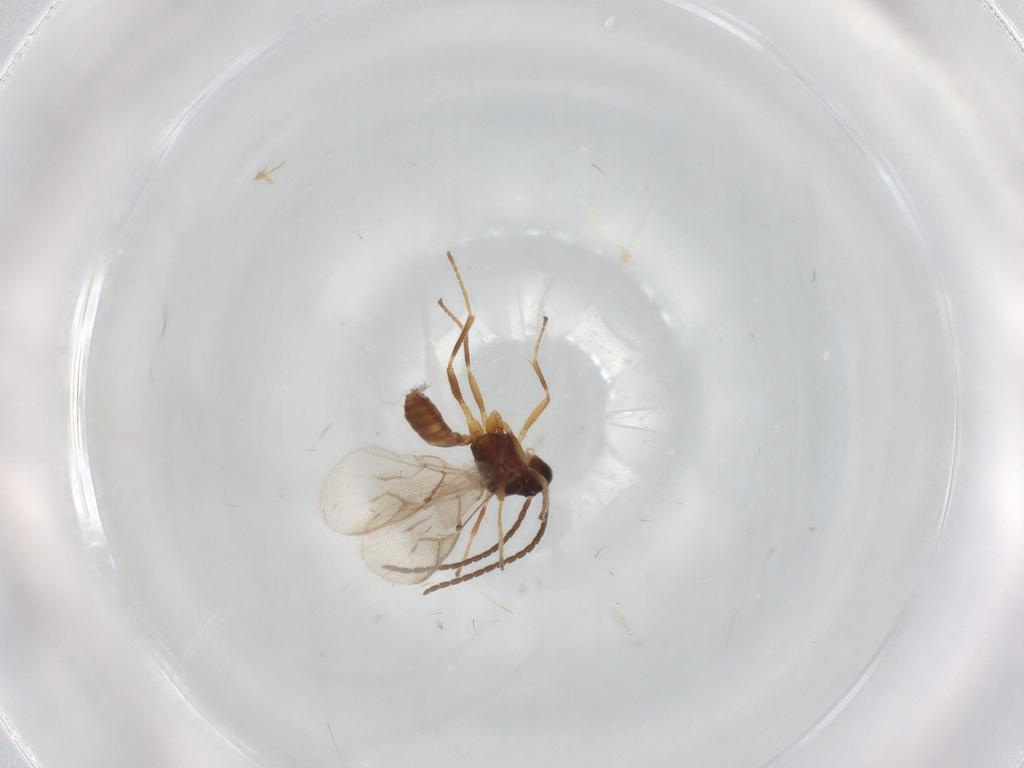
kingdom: Animalia
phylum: Arthropoda
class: Insecta
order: Hymenoptera
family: Braconidae
